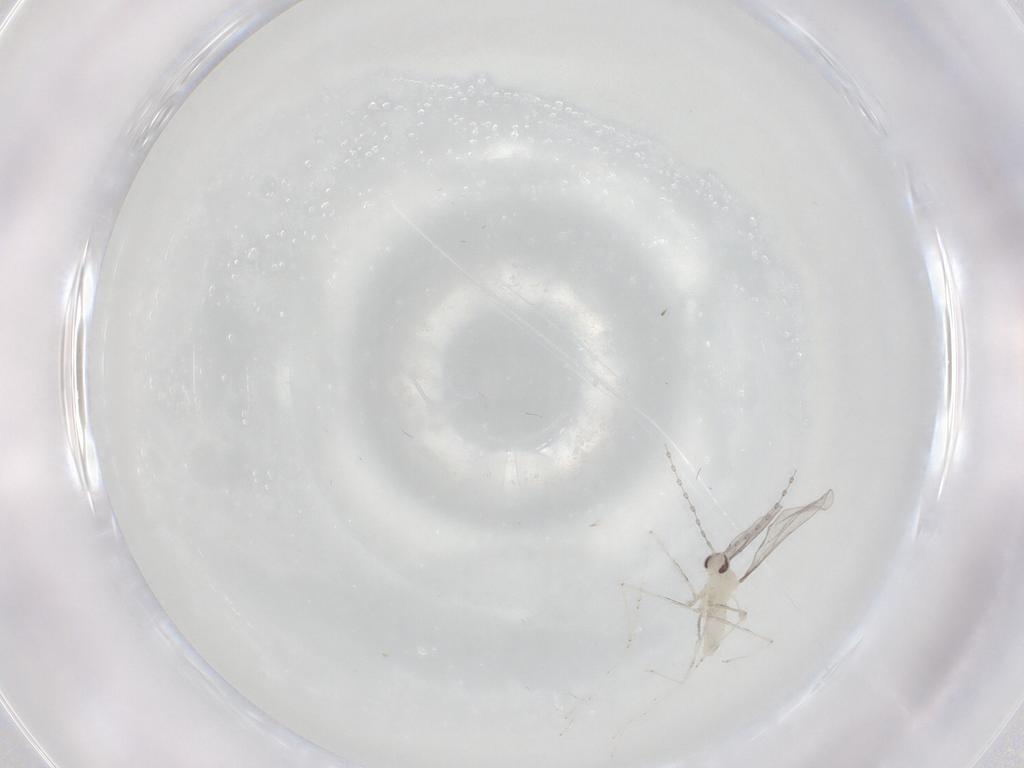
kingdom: Animalia
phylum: Arthropoda
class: Insecta
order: Diptera
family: Cecidomyiidae
